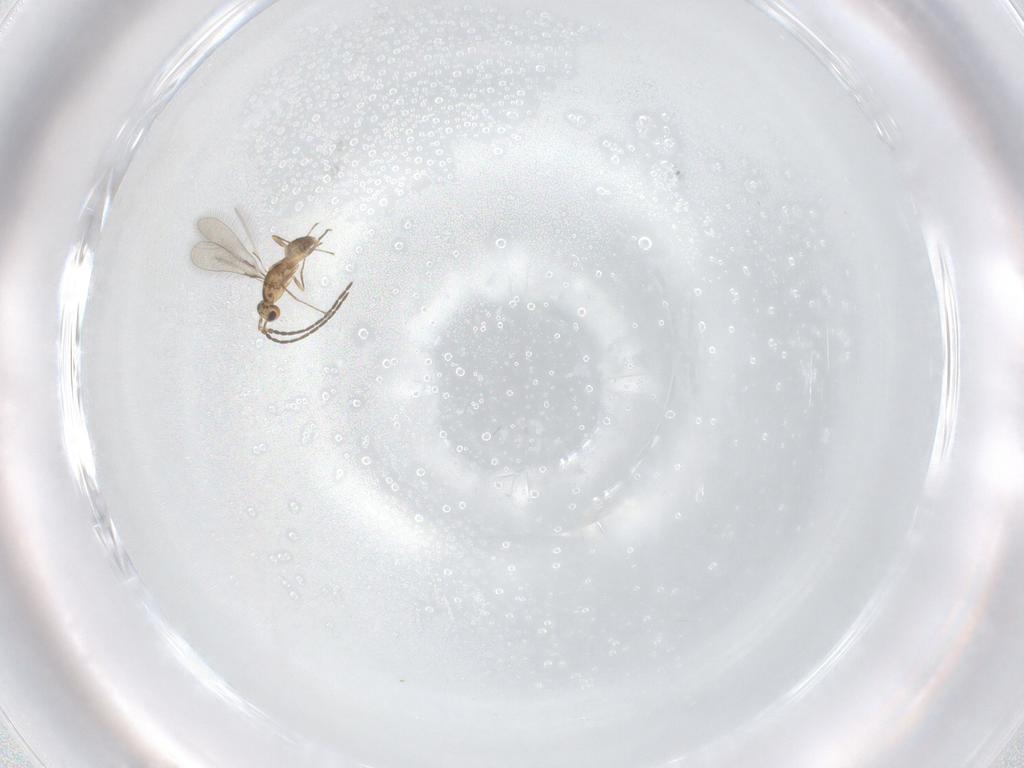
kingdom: Animalia
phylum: Arthropoda
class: Insecta
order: Hymenoptera
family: Mymaridae
